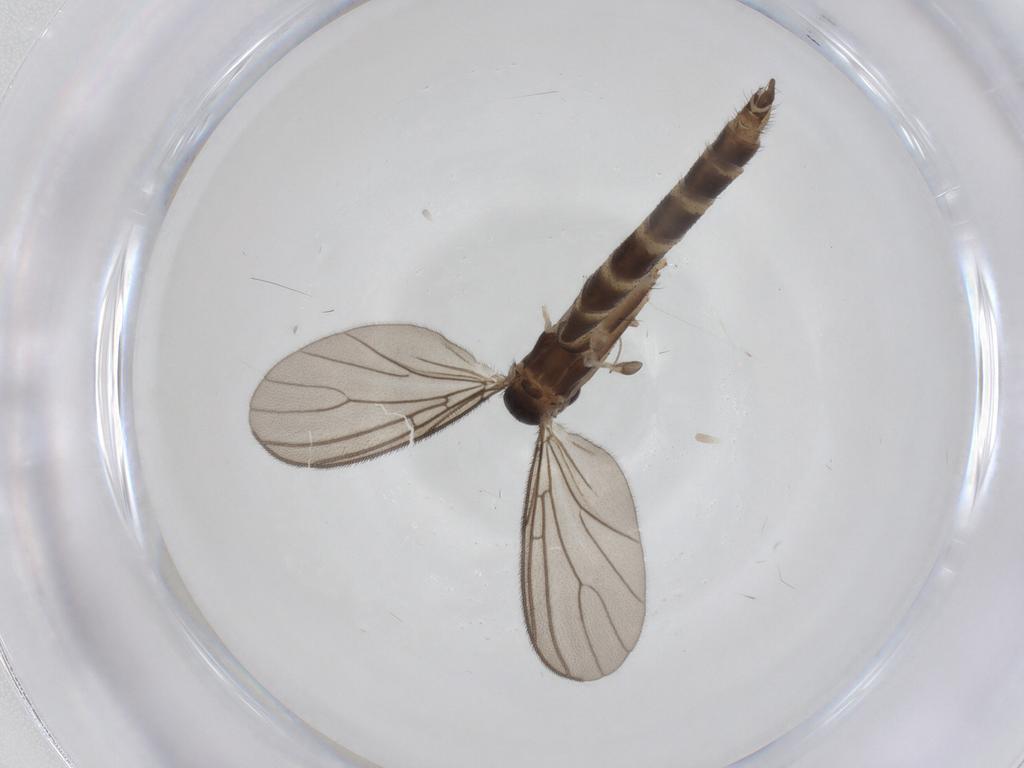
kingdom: Animalia
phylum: Arthropoda
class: Insecta
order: Diptera
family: Mycetophilidae
